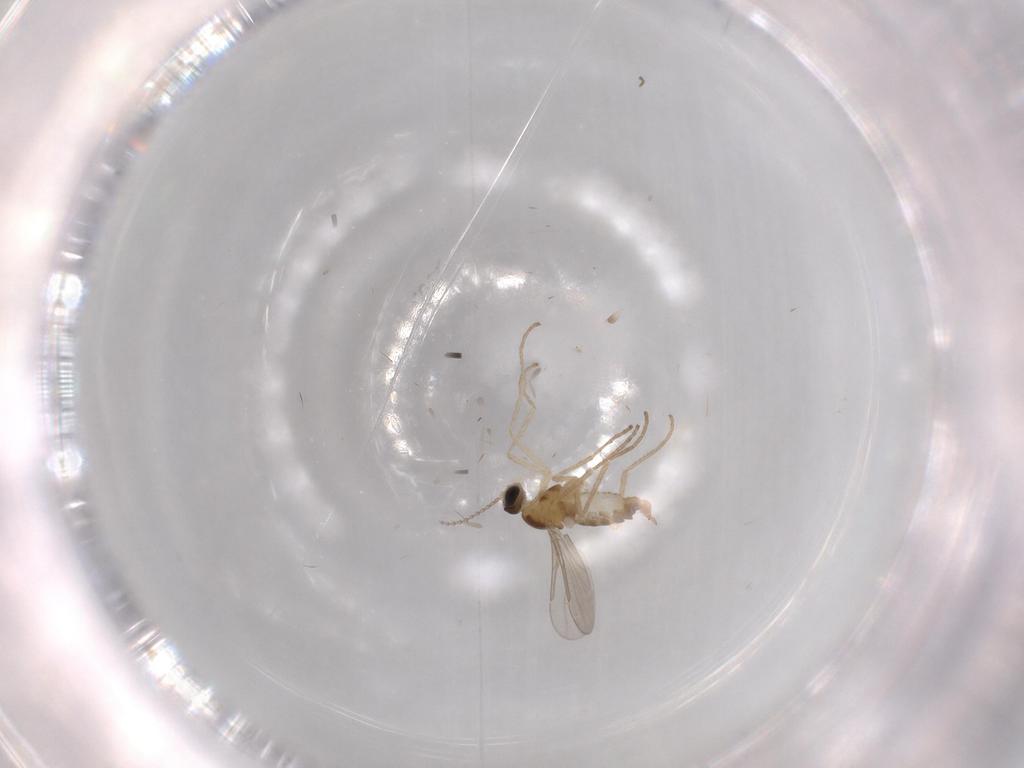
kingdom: Animalia
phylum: Arthropoda
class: Insecta
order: Diptera
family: Cecidomyiidae
